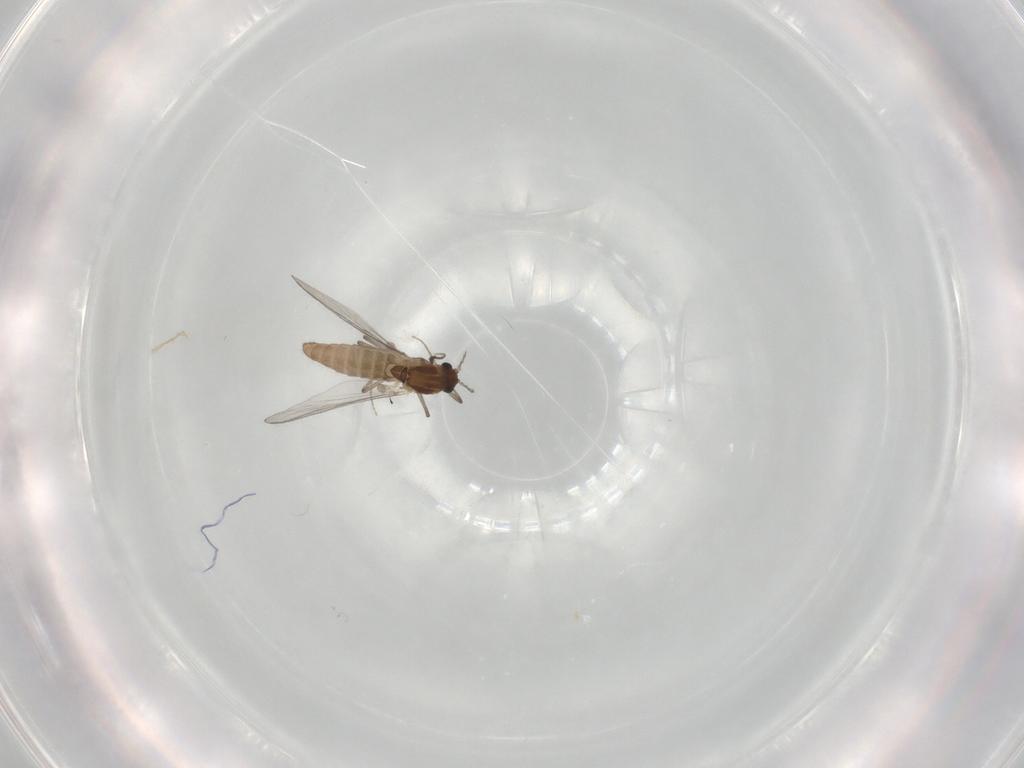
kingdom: Animalia
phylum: Arthropoda
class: Insecta
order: Diptera
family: Chironomidae
